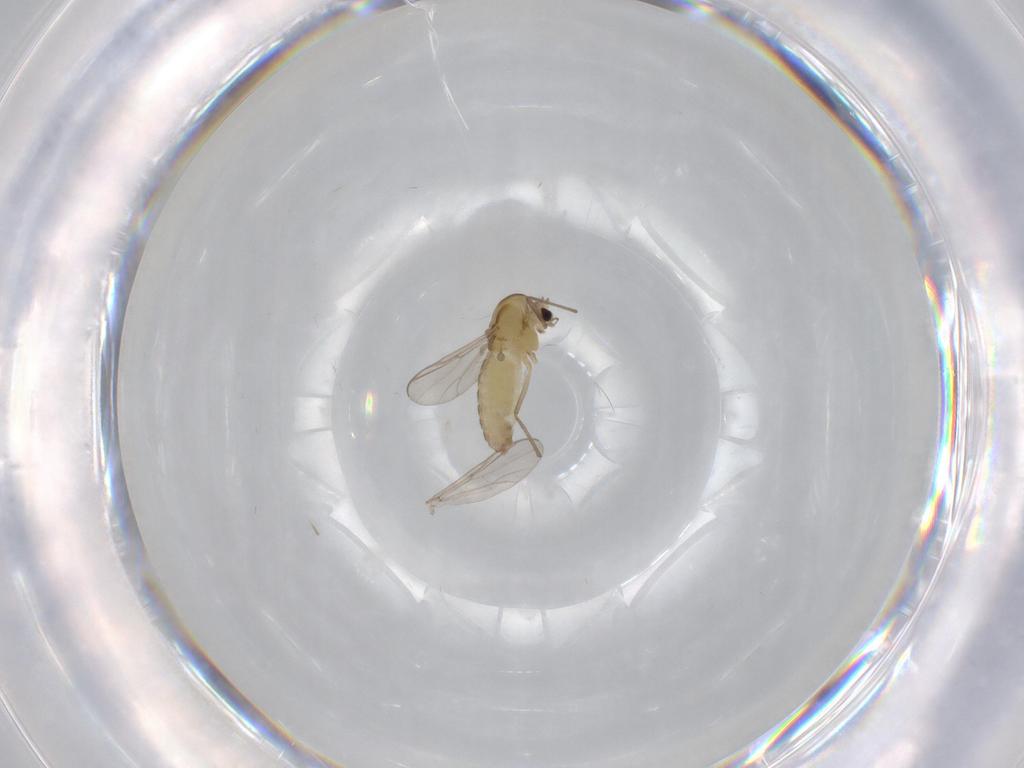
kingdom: Animalia
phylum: Arthropoda
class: Insecta
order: Diptera
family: Chironomidae
